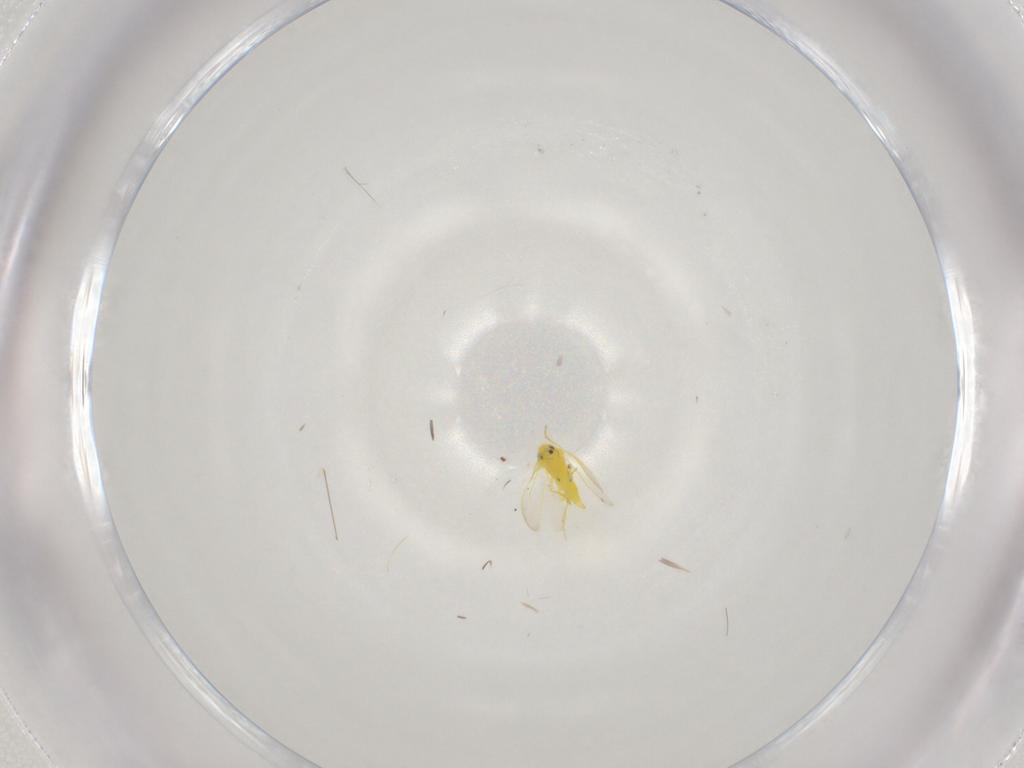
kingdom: Animalia
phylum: Arthropoda
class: Insecta
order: Hemiptera
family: Aleyrodidae
